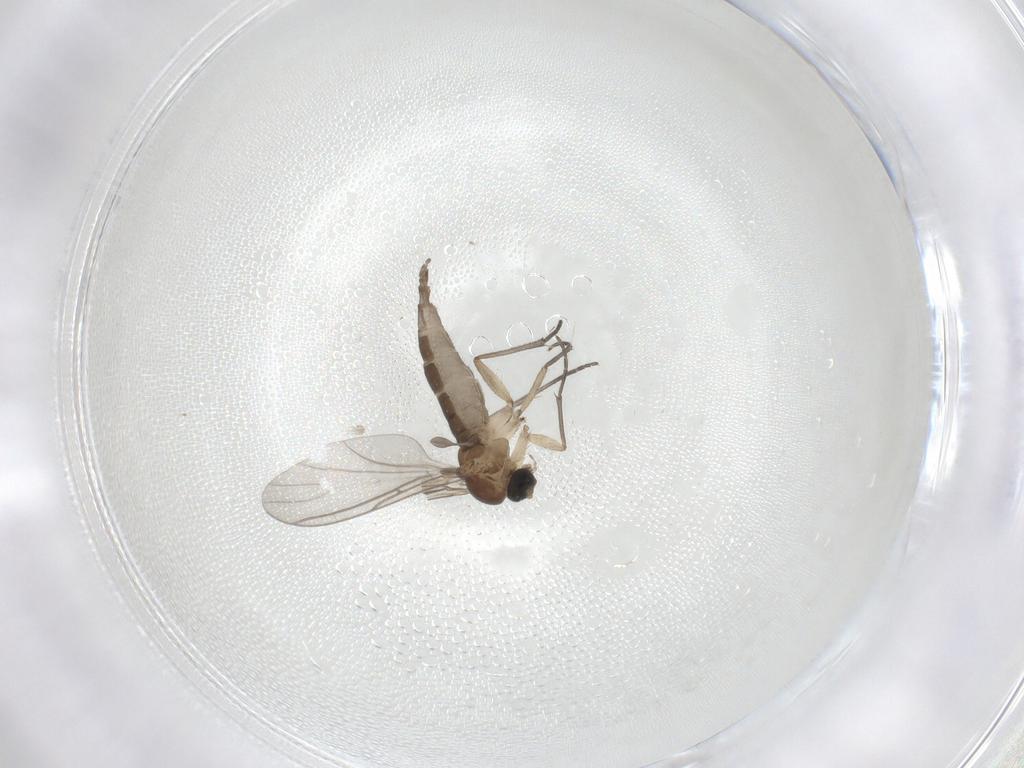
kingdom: Animalia
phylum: Arthropoda
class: Insecta
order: Diptera
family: Sciaridae
